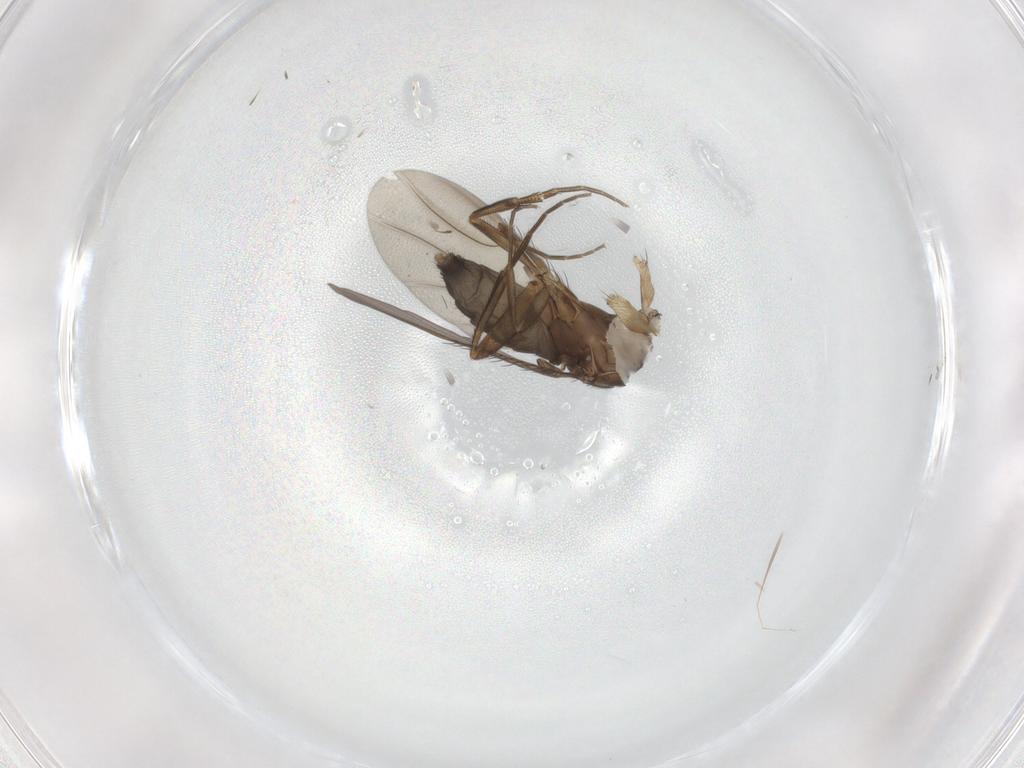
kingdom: Animalia
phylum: Arthropoda
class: Insecta
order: Diptera
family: Phoridae
